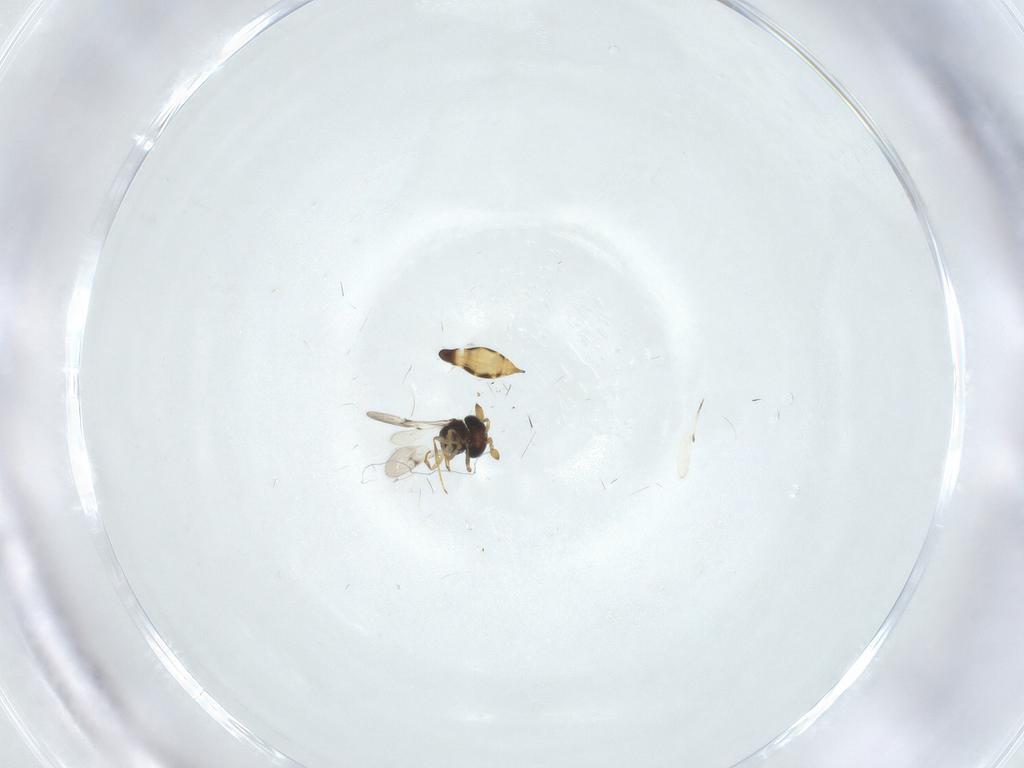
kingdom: Animalia
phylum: Arthropoda
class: Insecta
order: Hymenoptera
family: Scelionidae
